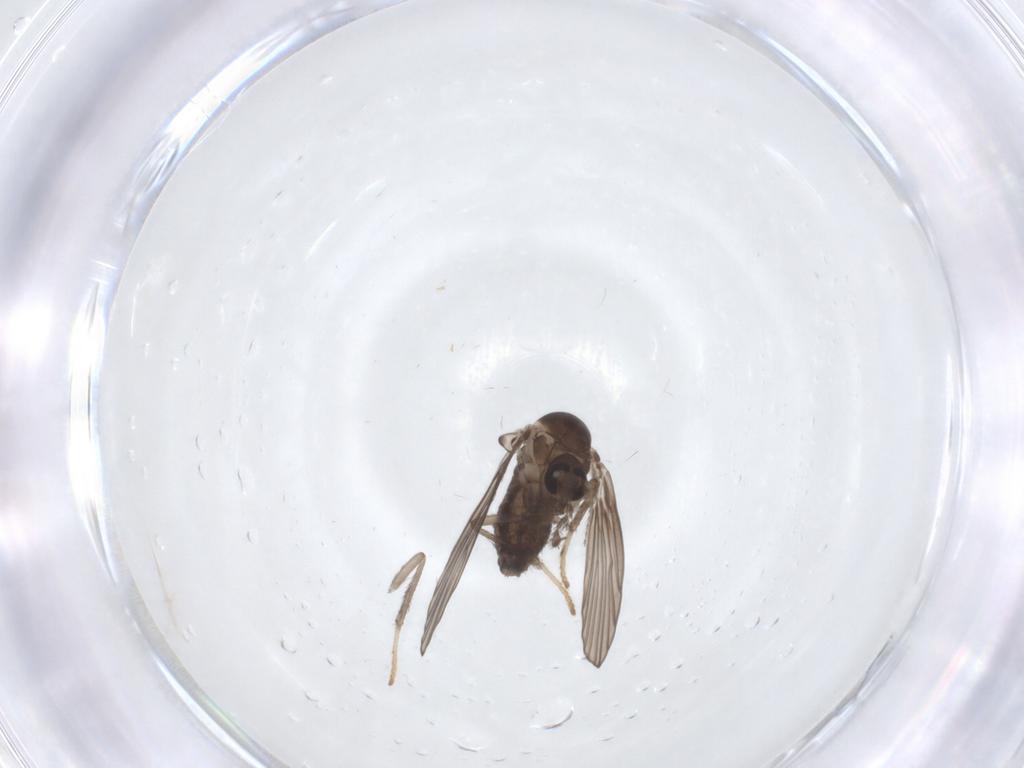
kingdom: Animalia
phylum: Arthropoda
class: Insecta
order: Diptera
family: Psychodidae
